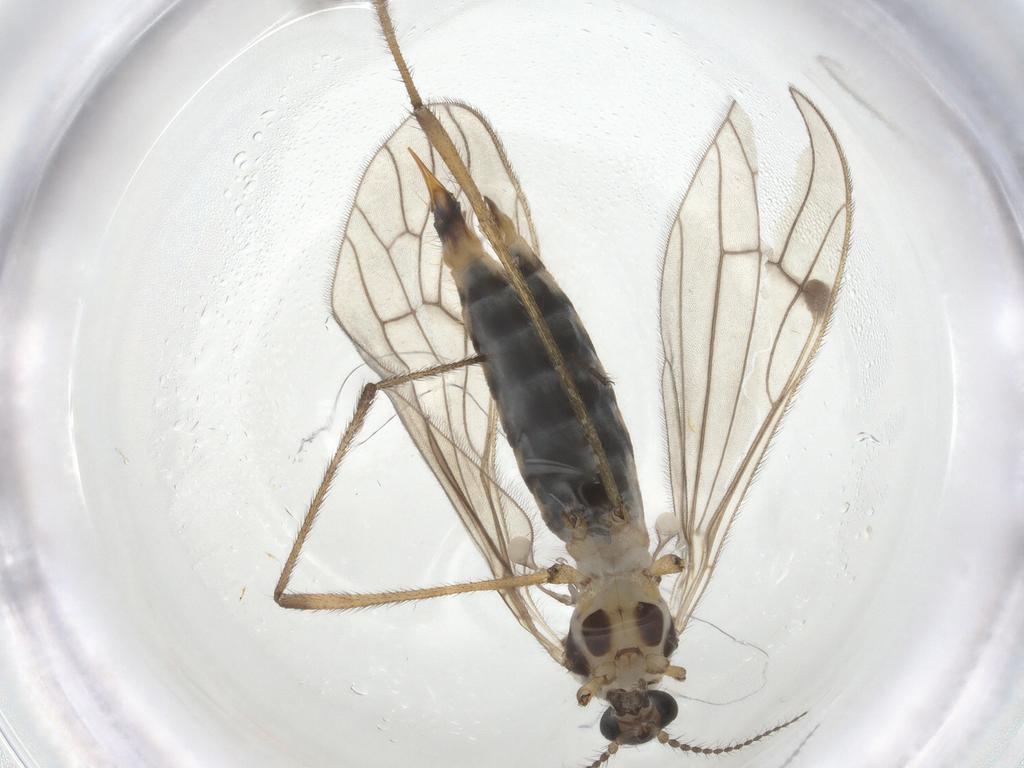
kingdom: Animalia
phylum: Arthropoda
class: Insecta
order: Diptera
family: Limoniidae
